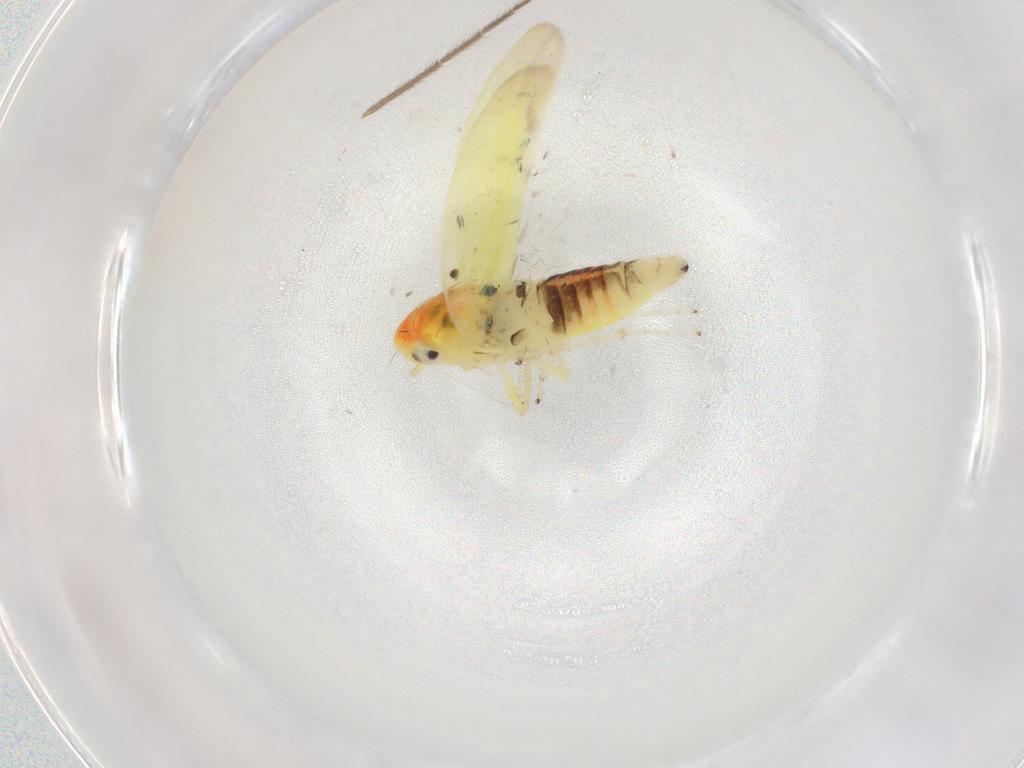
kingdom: Animalia
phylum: Arthropoda
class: Insecta
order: Hemiptera
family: Cicadellidae
